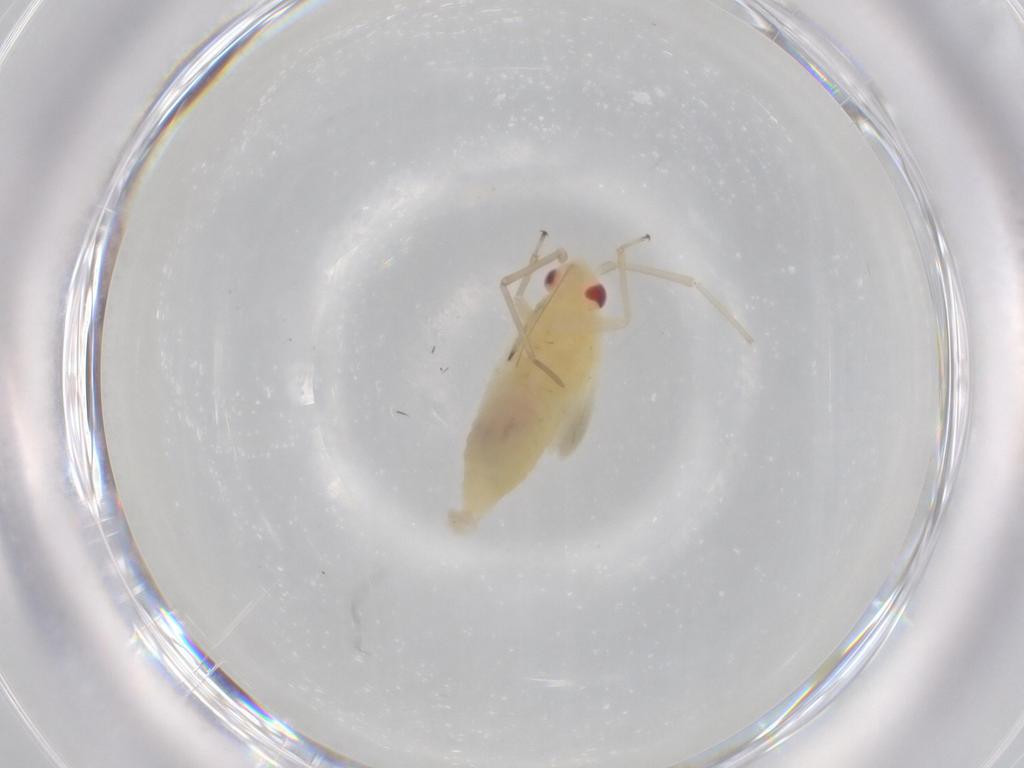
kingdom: Animalia
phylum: Arthropoda
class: Insecta
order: Hemiptera
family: Miridae
